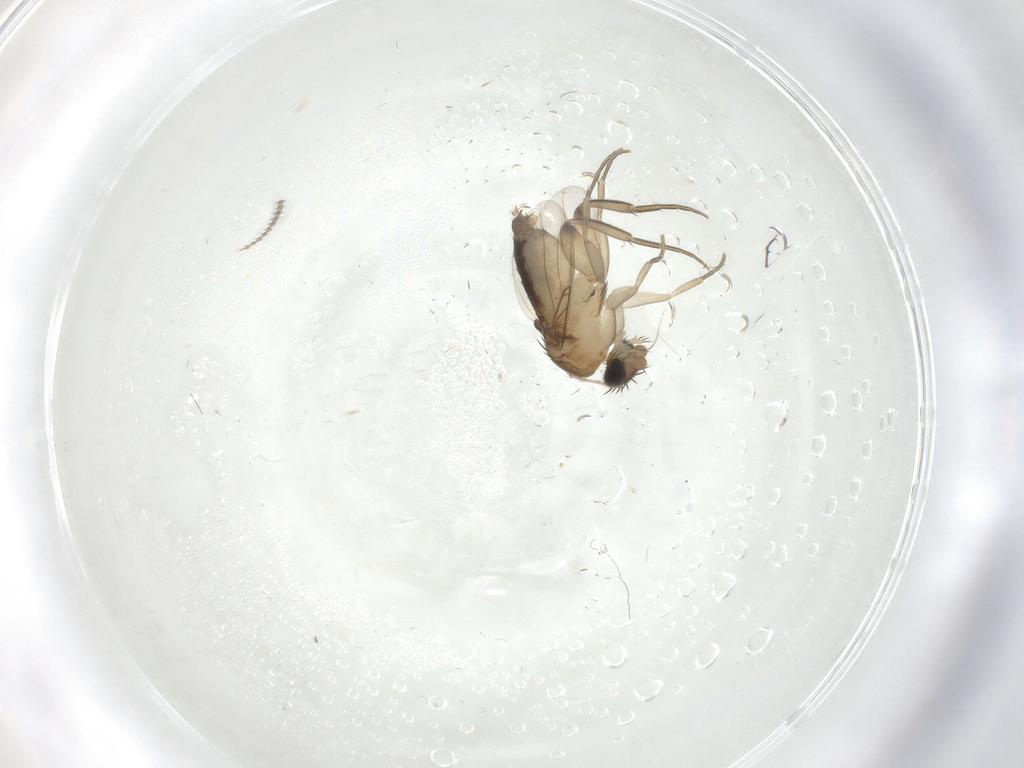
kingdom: Animalia
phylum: Arthropoda
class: Insecta
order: Diptera
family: Phoridae
